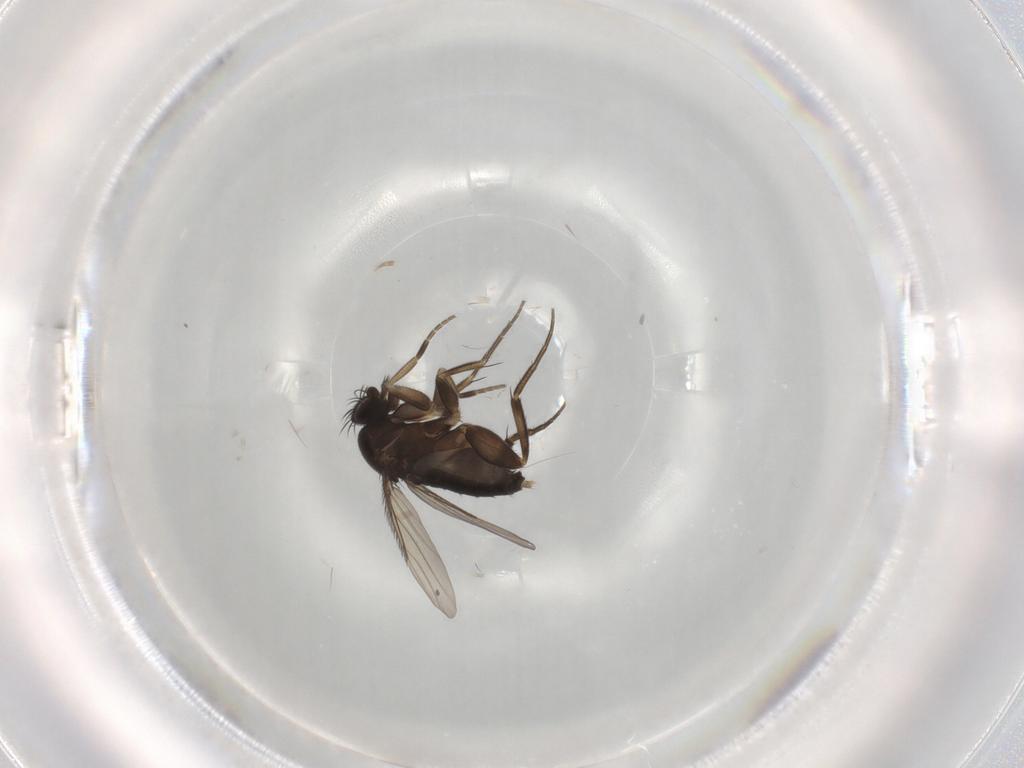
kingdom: Animalia
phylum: Arthropoda
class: Insecta
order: Diptera
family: Phoridae
